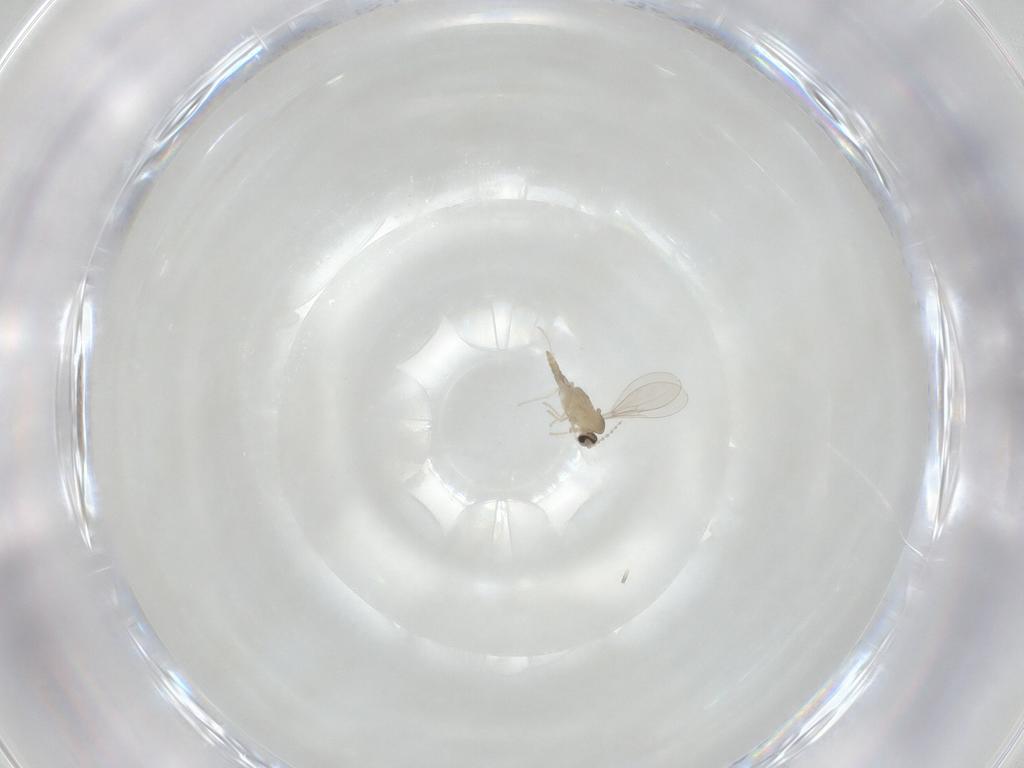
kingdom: Animalia
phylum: Arthropoda
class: Insecta
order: Diptera
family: Cecidomyiidae
